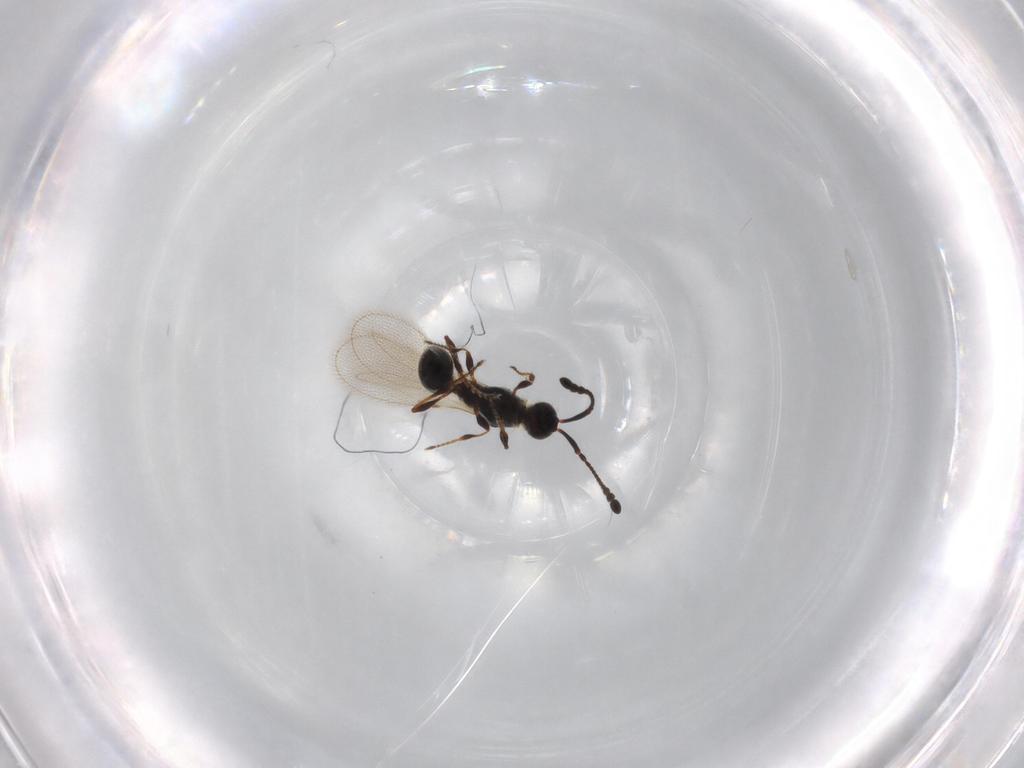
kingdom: Animalia
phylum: Arthropoda
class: Insecta
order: Hymenoptera
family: Diapriidae
